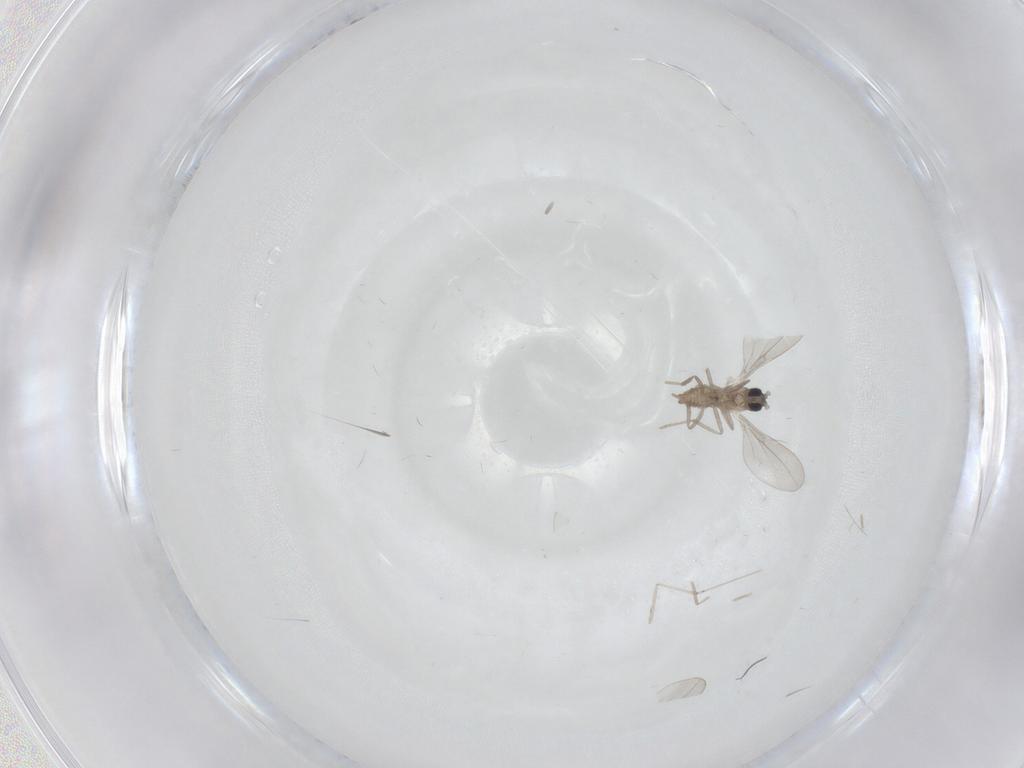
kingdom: Animalia
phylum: Arthropoda
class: Insecta
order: Diptera
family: Cecidomyiidae
